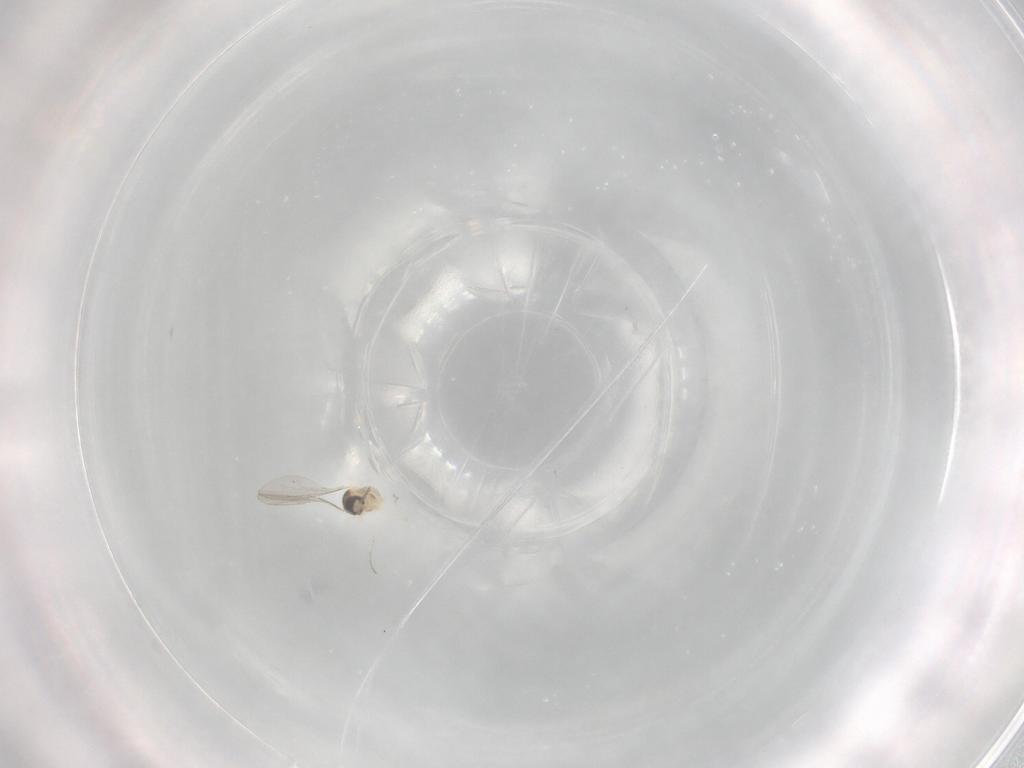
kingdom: Animalia
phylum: Arthropoda
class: Insecta
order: Diptera
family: Cecidomyiidae
